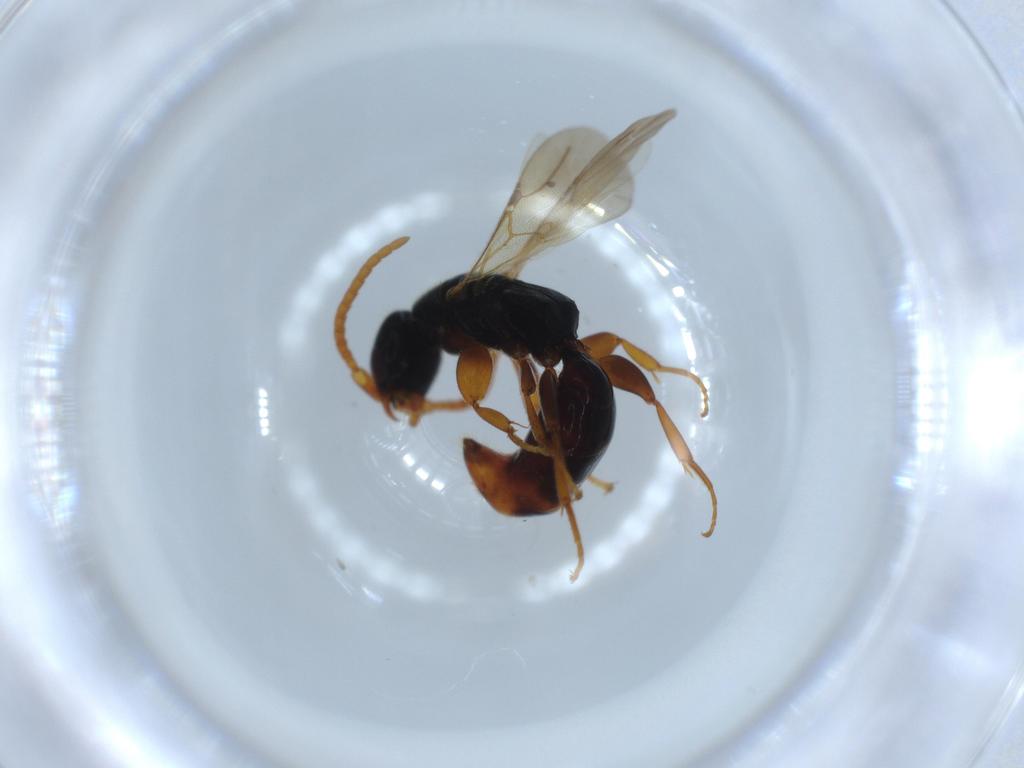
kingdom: Animalia
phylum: Arthropoda
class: Insecta
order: Hymenoptera
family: Bethylidae
